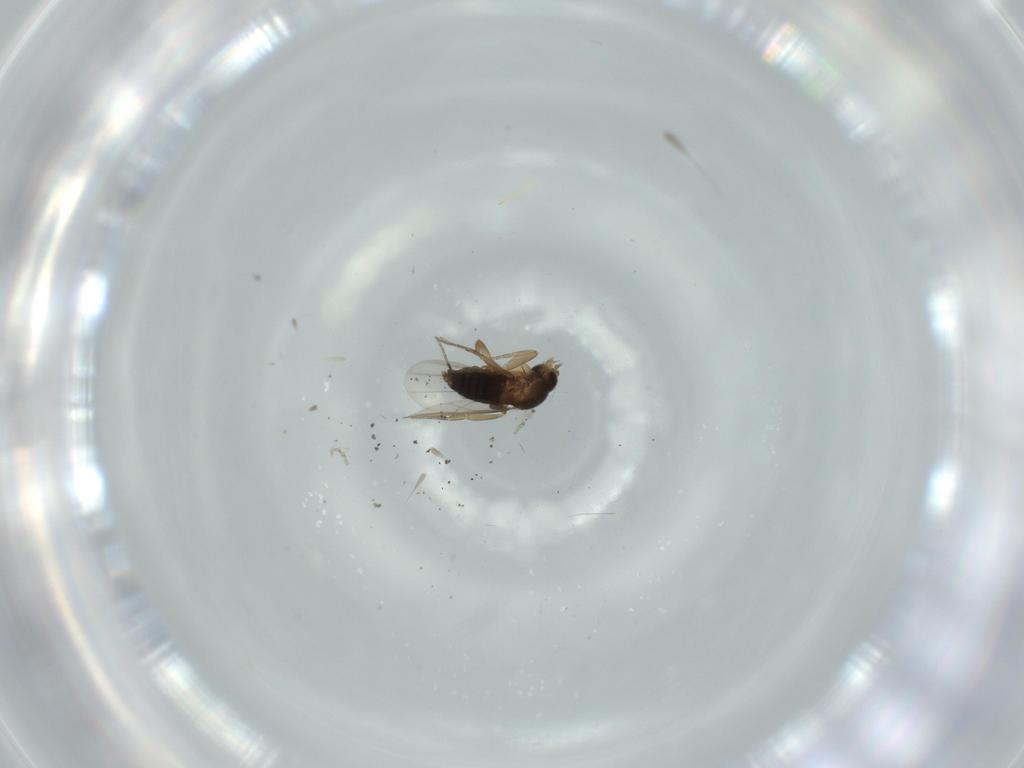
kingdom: Animalia
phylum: Arthropoda
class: Insecta
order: Diptera
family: Phoridae
